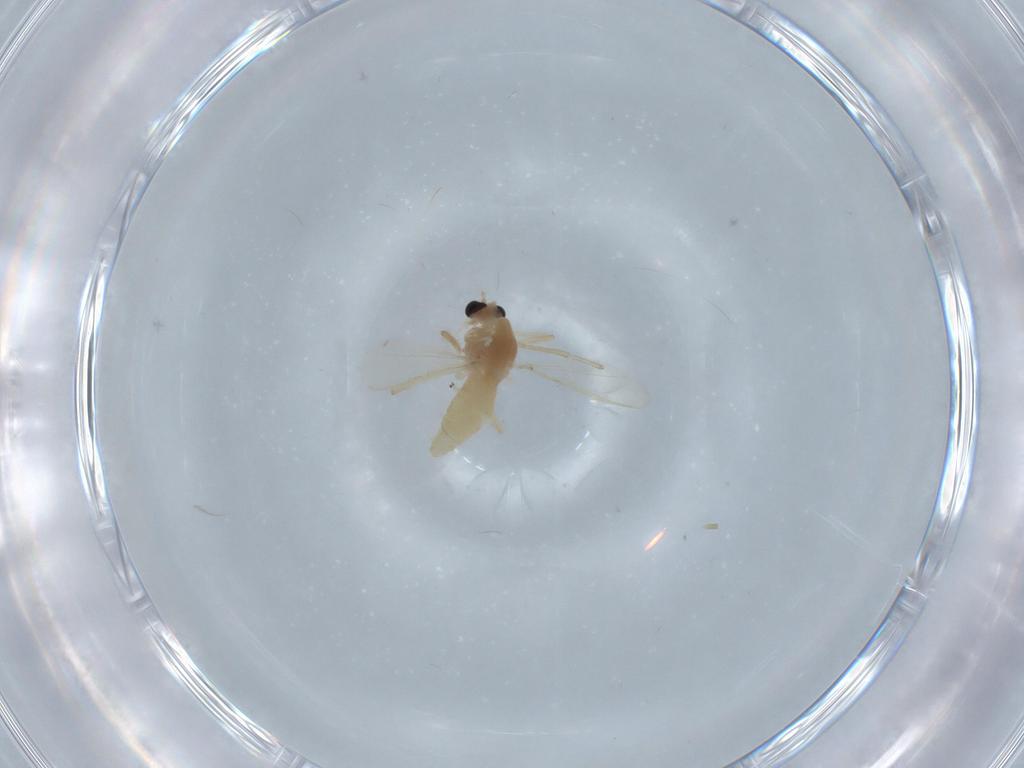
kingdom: Animalia
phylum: Arthropoda
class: Insecta
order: Diptera
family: Chironomidae
